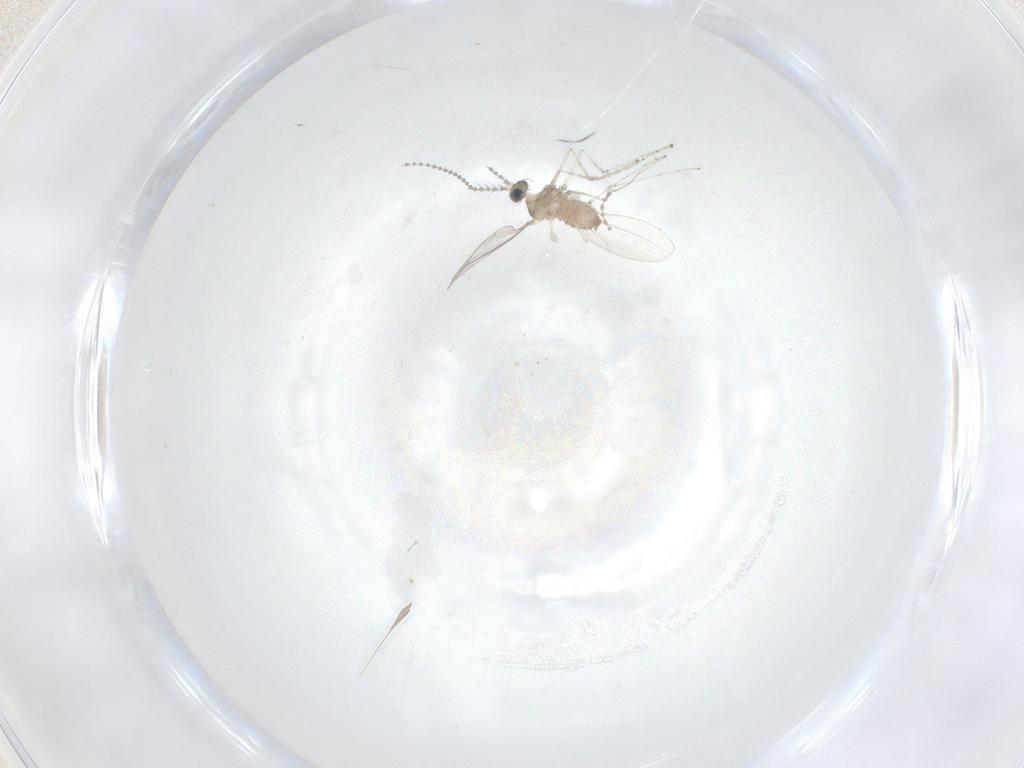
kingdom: Animalia
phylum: Arthropoda
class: Insecta
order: Diptera
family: Cecidomyiidae
